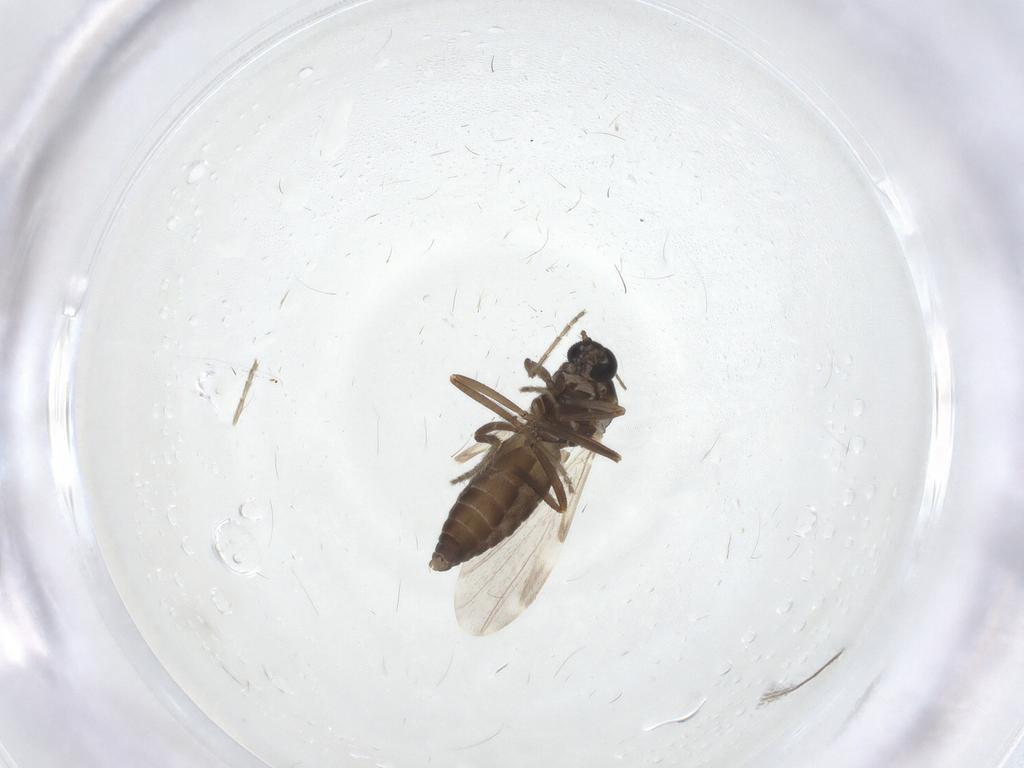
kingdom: Animalia
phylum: Arthropoda
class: Insecta
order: Diptera
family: Ceratopogonidae
